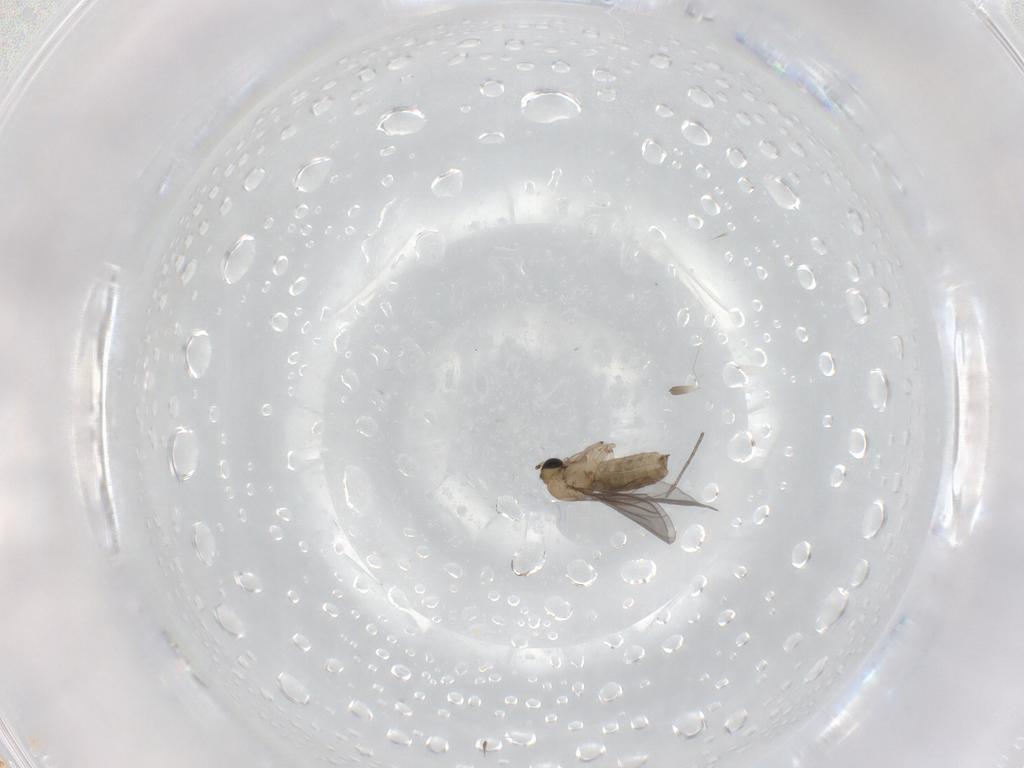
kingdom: Animalia
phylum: Arthropoda
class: Insecta
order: Diptera
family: Sciaridae
